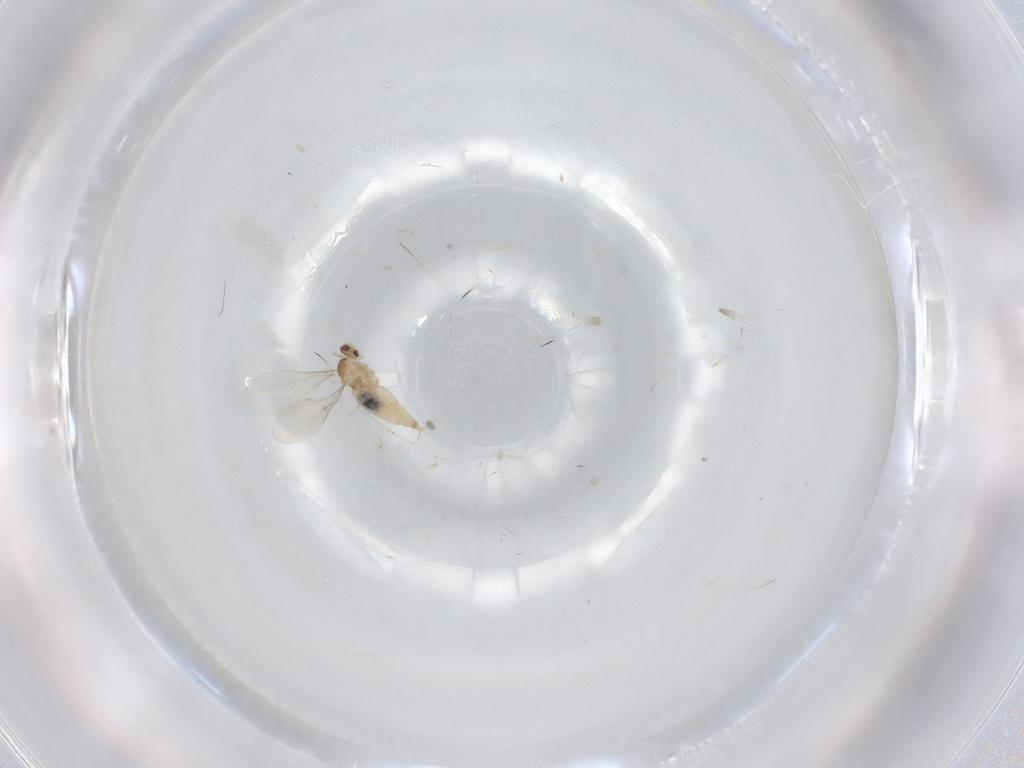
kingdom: Animalia
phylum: Arthropoda
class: Insecta
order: Diptera
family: Cecidomyiidae
